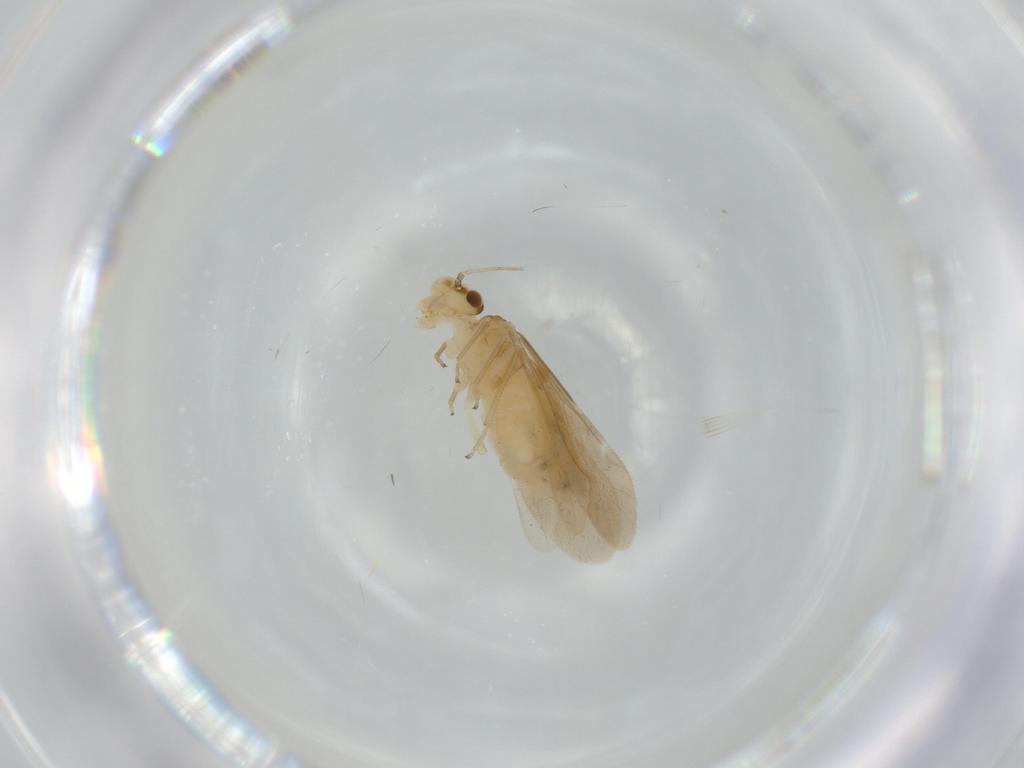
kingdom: Animalia
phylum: Arthropoda
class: Insecta
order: Psocodea
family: Caeciliusidae
